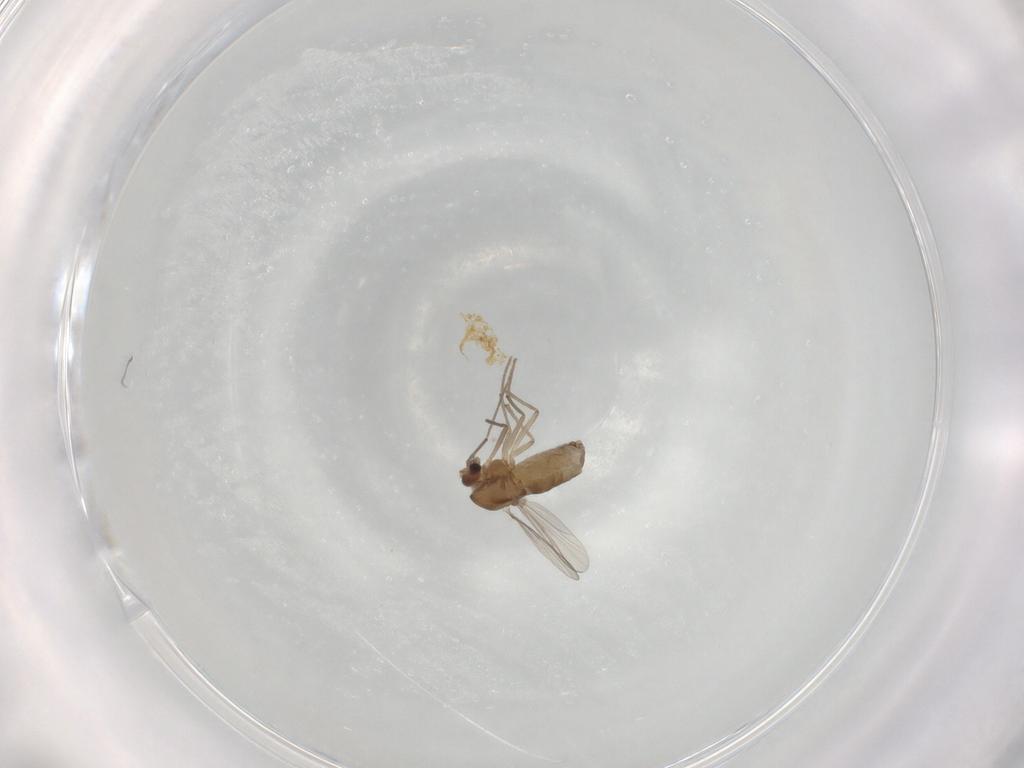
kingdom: Animalia
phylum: Arthropoda
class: Insecta
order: Diptera
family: Chironomidae
